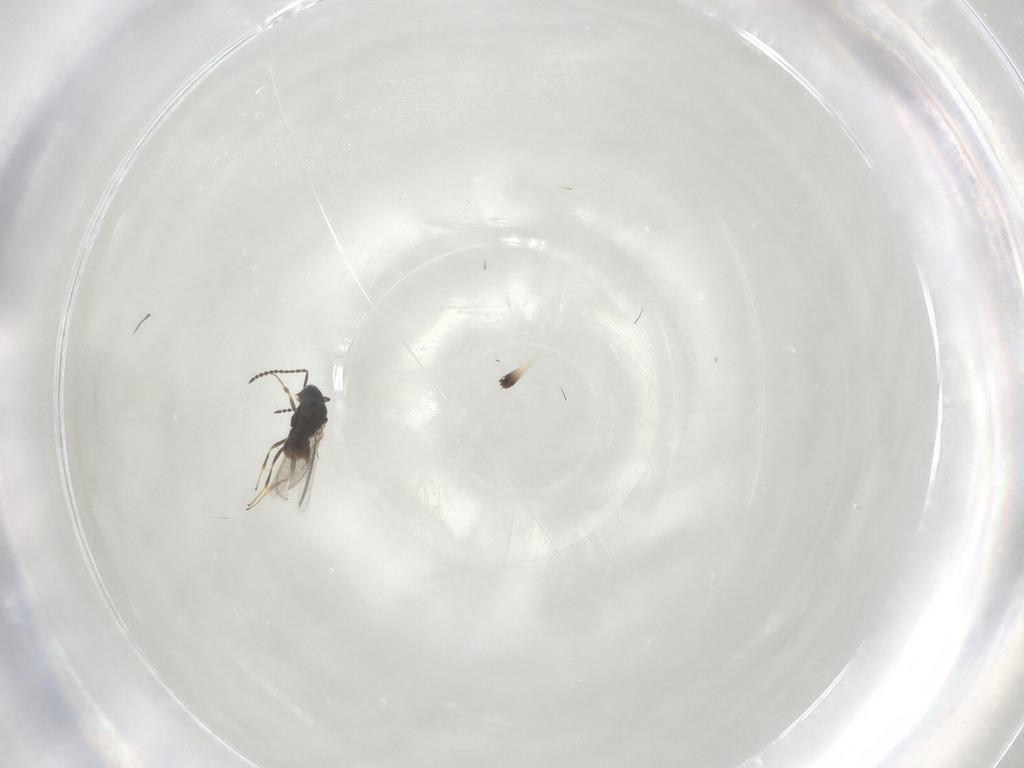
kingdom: Animalia
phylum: Arthropoda
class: Insecta
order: Hymenoptera
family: Scelionidae
